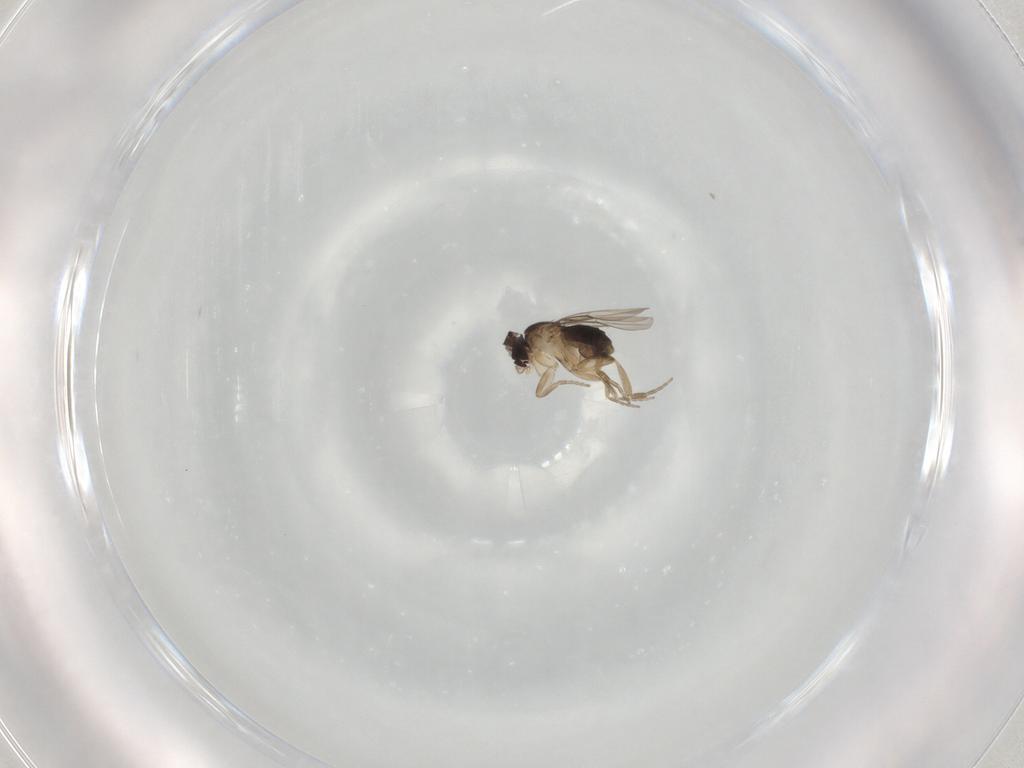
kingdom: Animalia
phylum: Arthropoda
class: Insecta
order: Diptera
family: Phoridae
